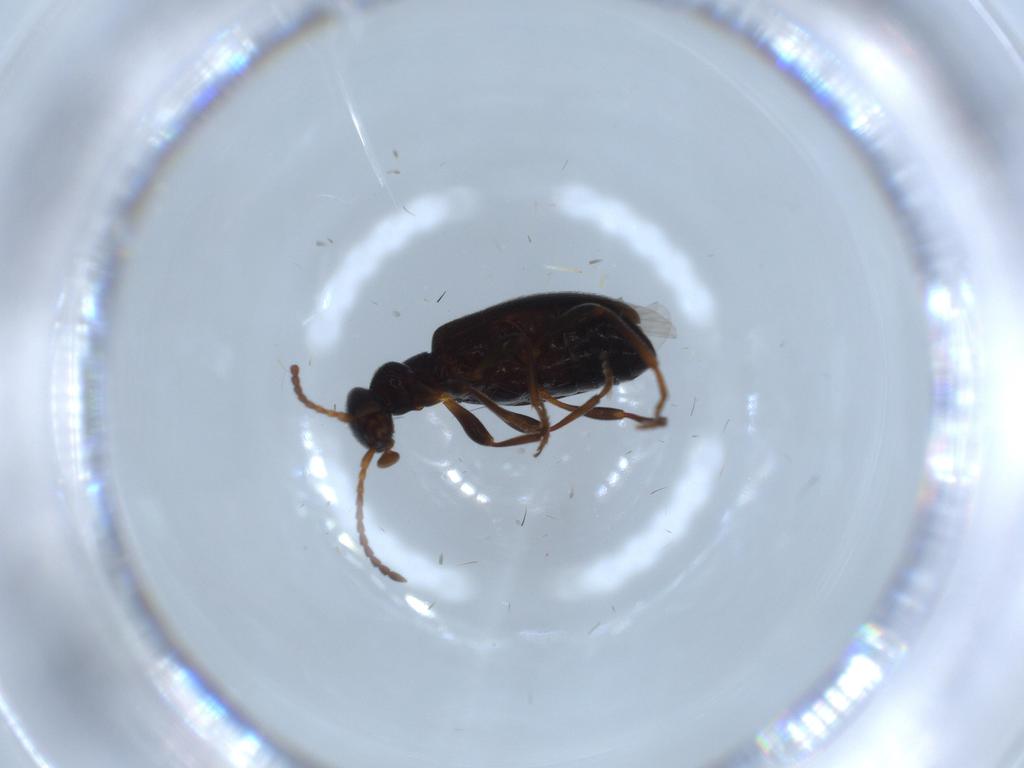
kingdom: Animalia
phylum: Arthropoda
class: Insecta
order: Coleoptera
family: Anthicidae
